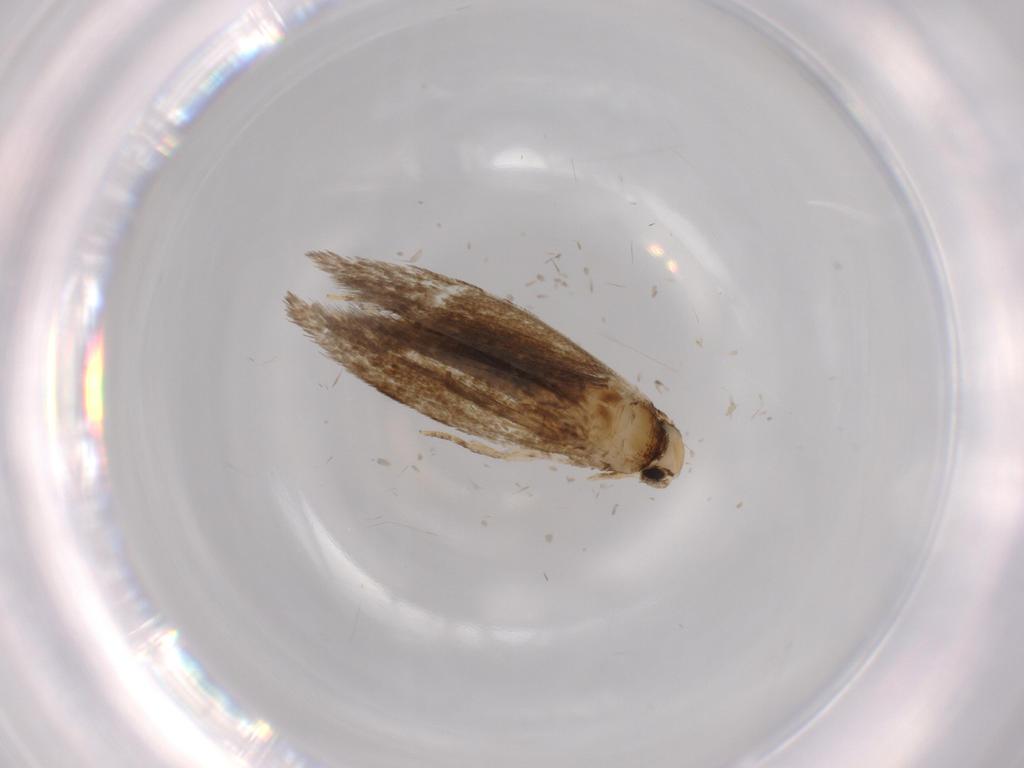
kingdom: Animalia
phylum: Arthropoda
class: Insecta
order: Lepidoptera
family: Tineidae
